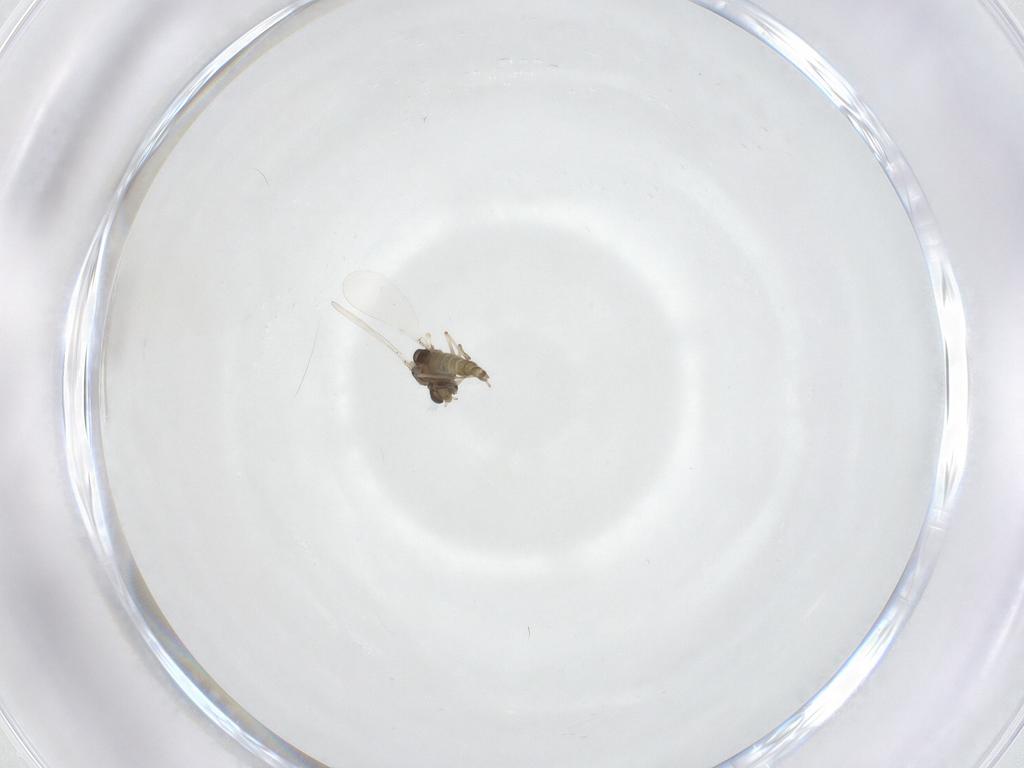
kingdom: Animalia
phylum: Arthropoda
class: Insecta
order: Diptera
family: Chironomidae
